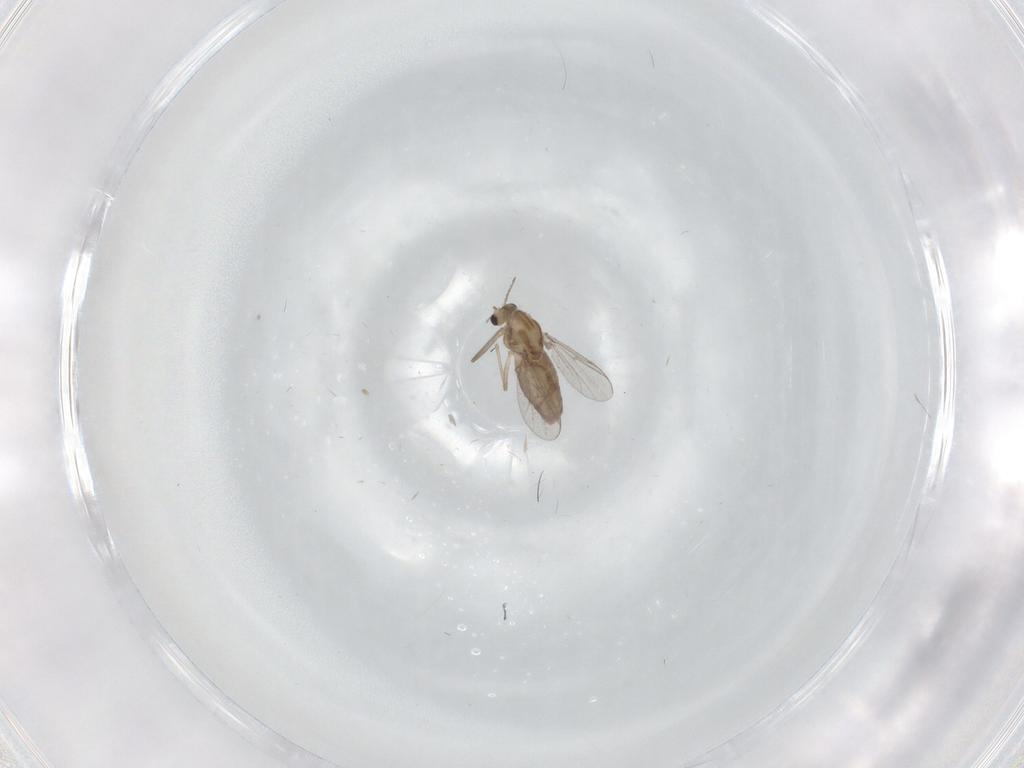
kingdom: Animalia
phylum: Arthropoda
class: Insecta
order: Diptera
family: Chironomidae
